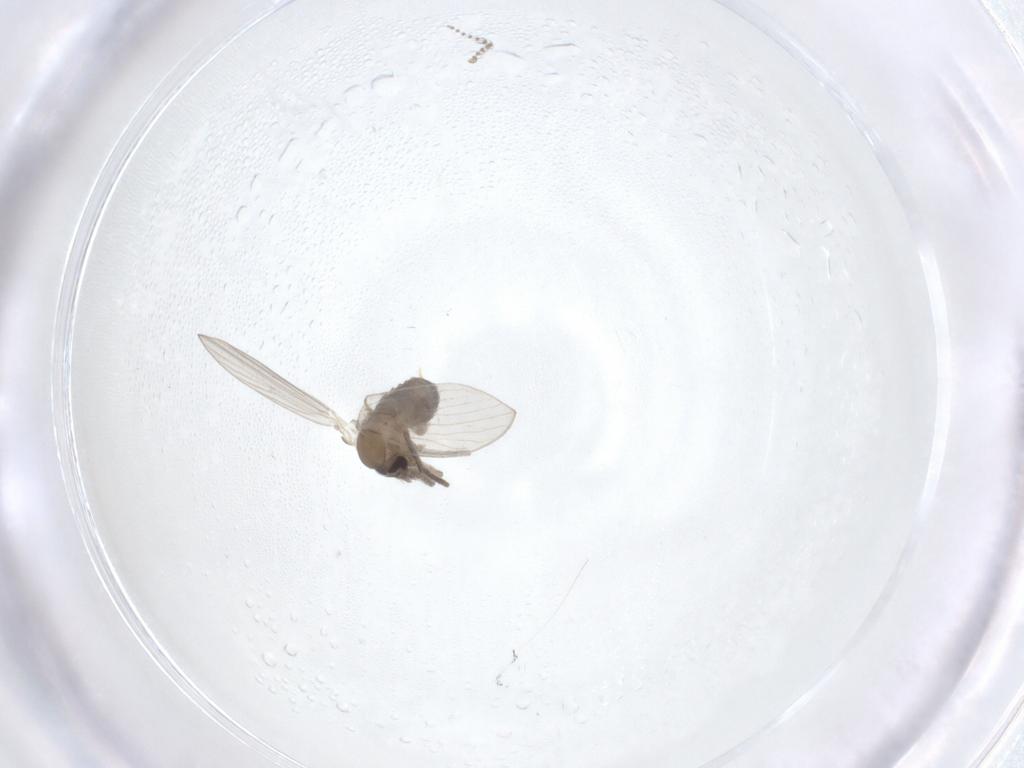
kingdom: Animalia
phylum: Arthropoda
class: Insecta
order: Diptera
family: Psychodidae
